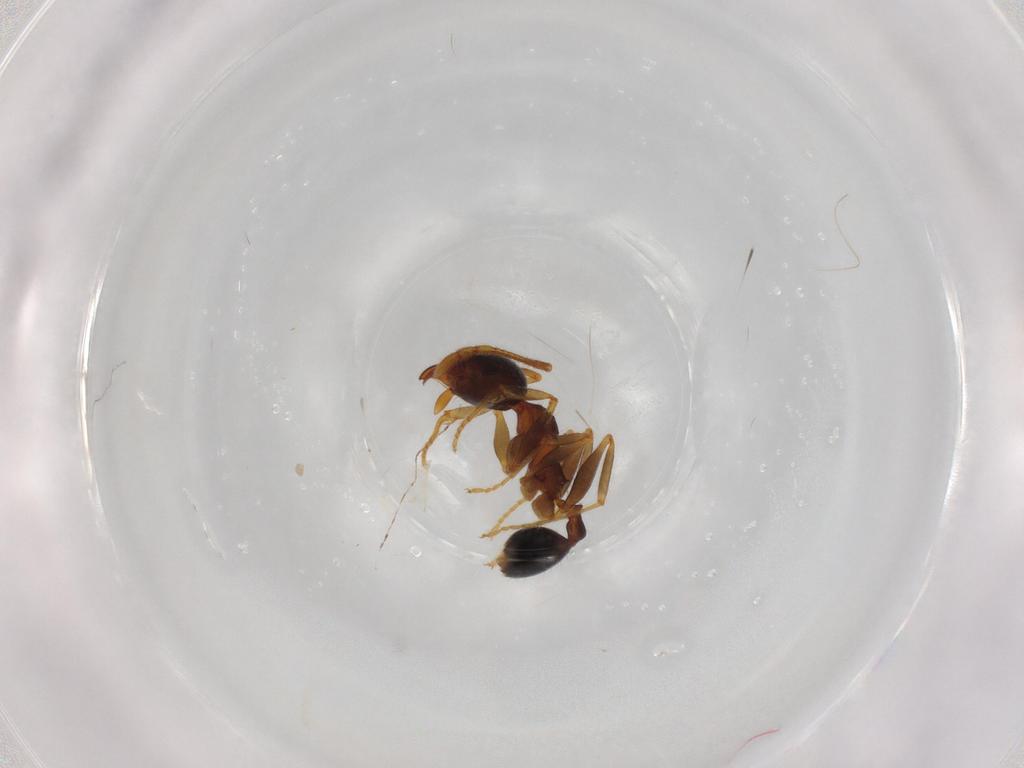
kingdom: Animalia
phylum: Arthropoda
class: Insecta
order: Hymenoptera
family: Formicidae
